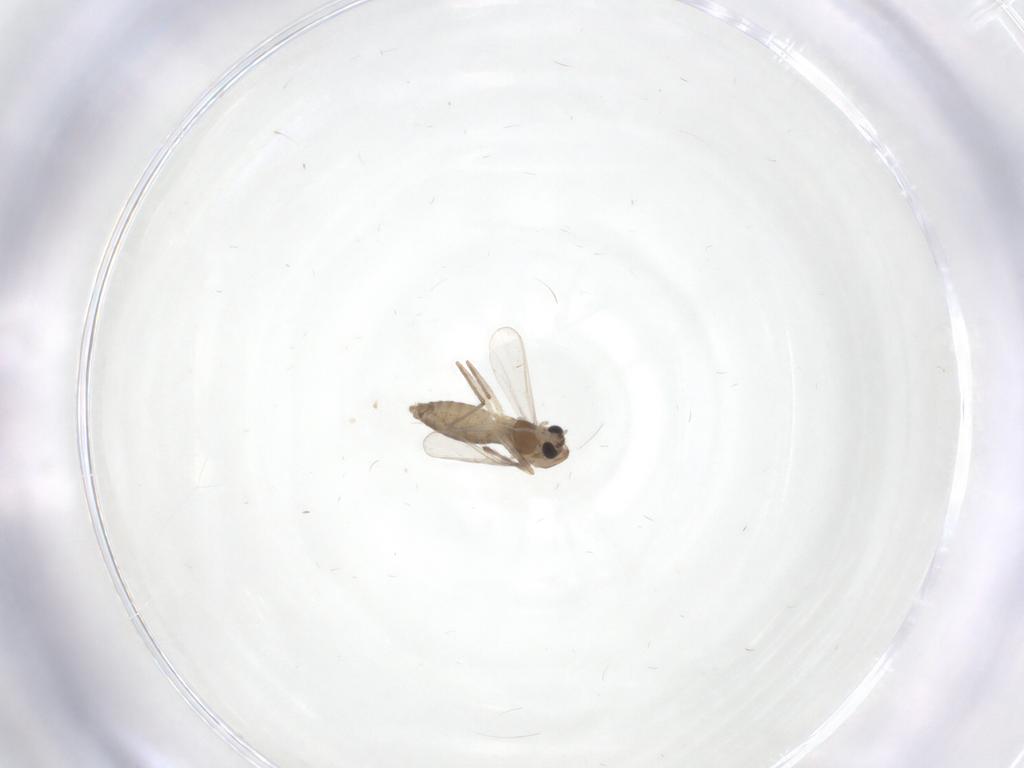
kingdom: Animalia
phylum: Arthropoda
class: Insecta
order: Diptera
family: Chironomidae
